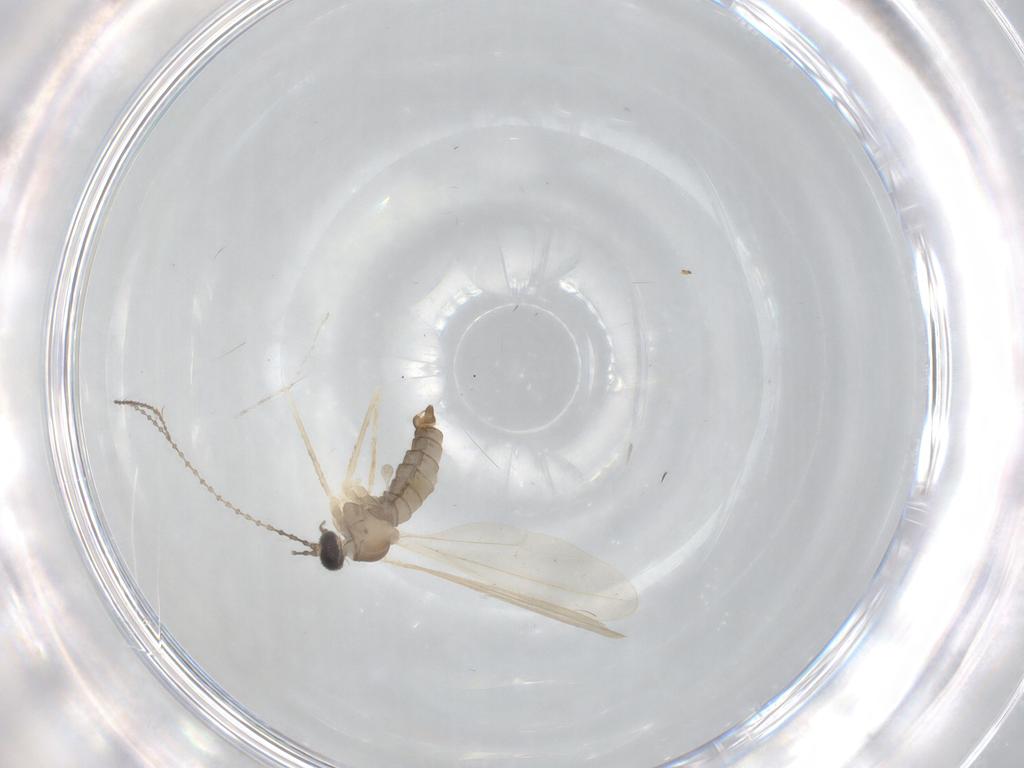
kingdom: Animalia
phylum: Arthropoda
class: Insecta
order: Diptera
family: Cecidomyiidae
